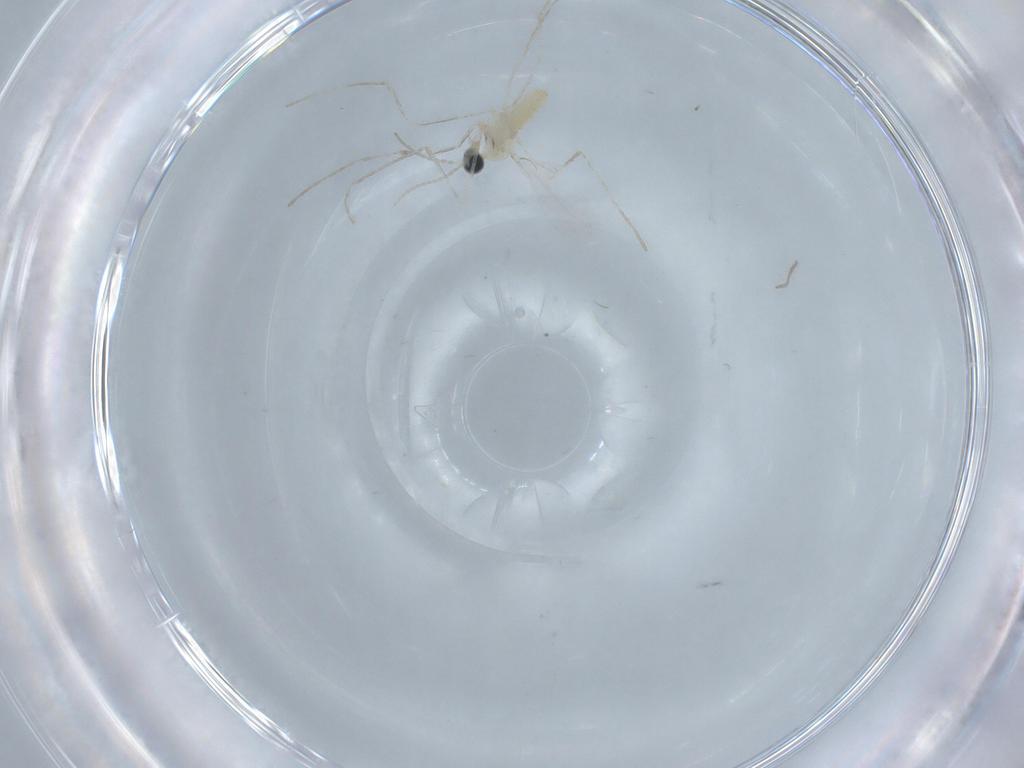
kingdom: Animalia
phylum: Arthropoda
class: Insecta
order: Diptera
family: Cecidomyiidae
